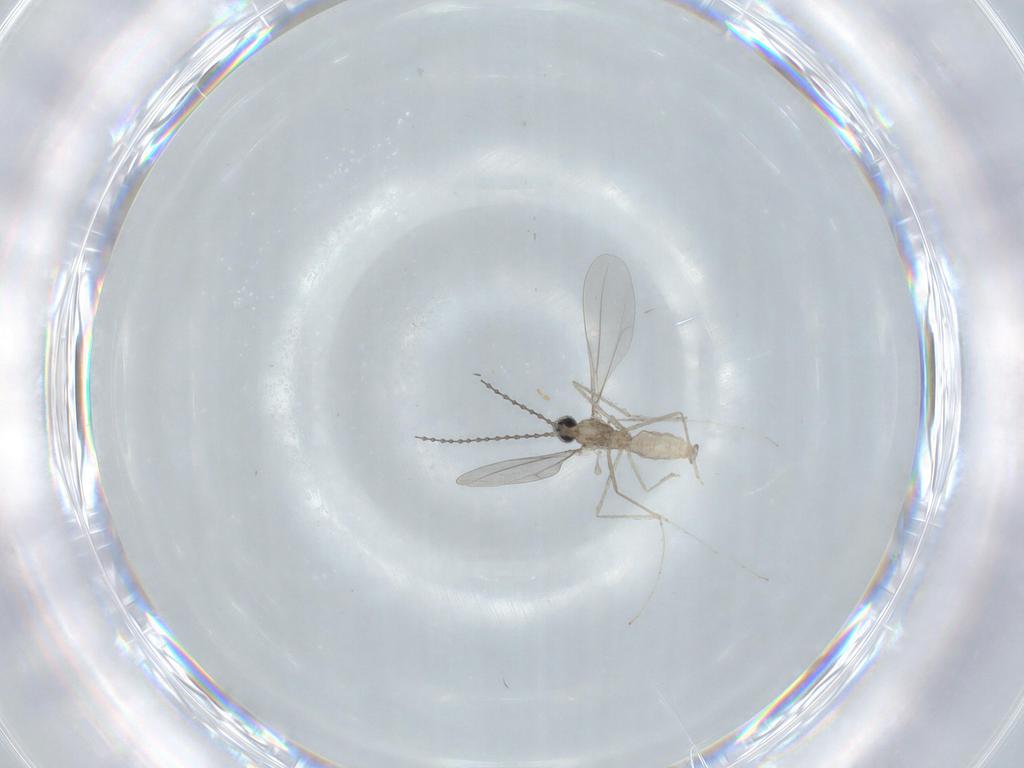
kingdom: Animalia
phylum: Arthropoda
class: Insecta
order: Diptera
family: Cecidomyiidae
